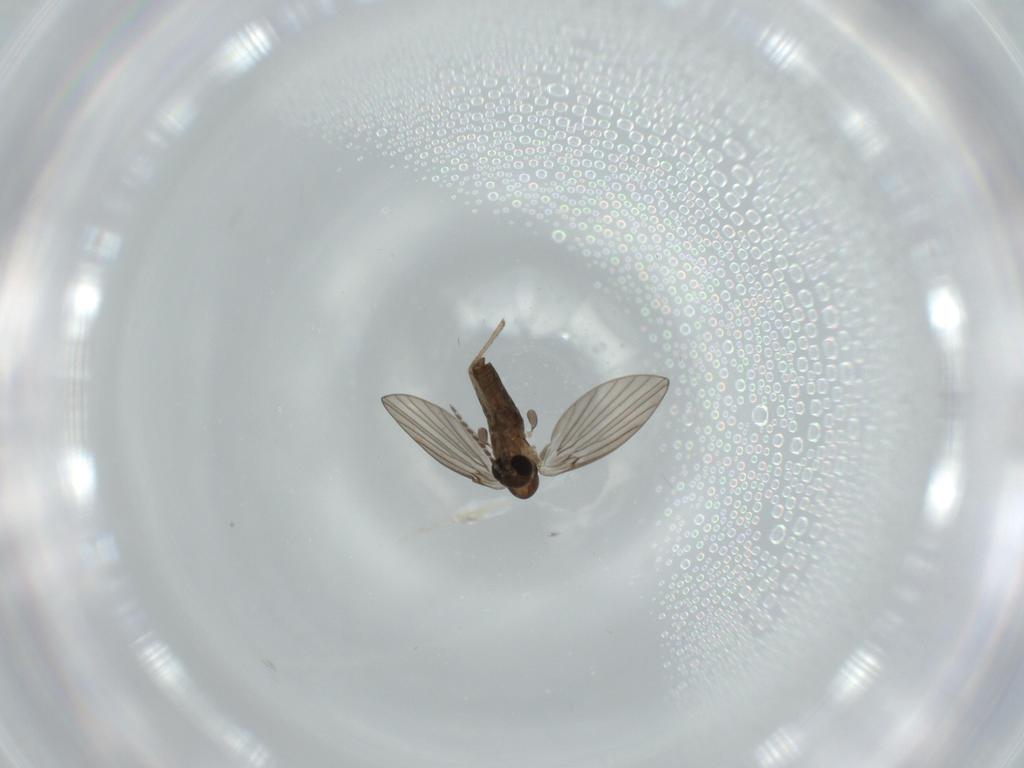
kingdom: Animalia
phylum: Arthropoda
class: Insecta
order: Diptera
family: Psychodidae
